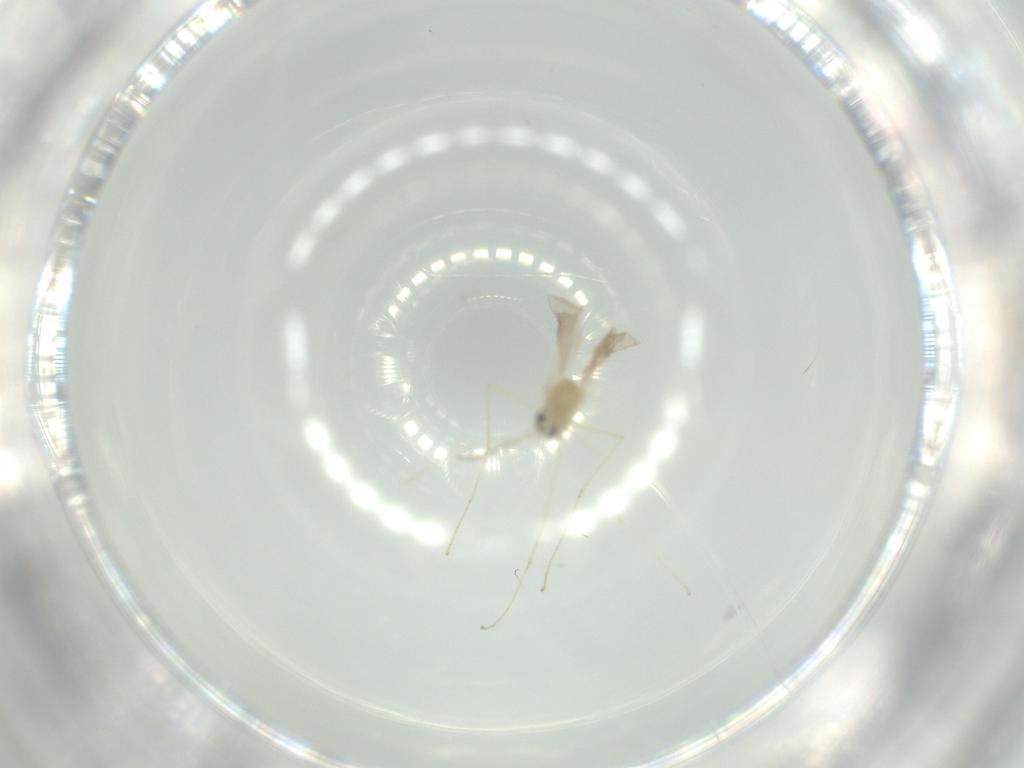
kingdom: Animalia
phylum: Arthropoda
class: Insecta
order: Diptera
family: Cecidomyiidae
